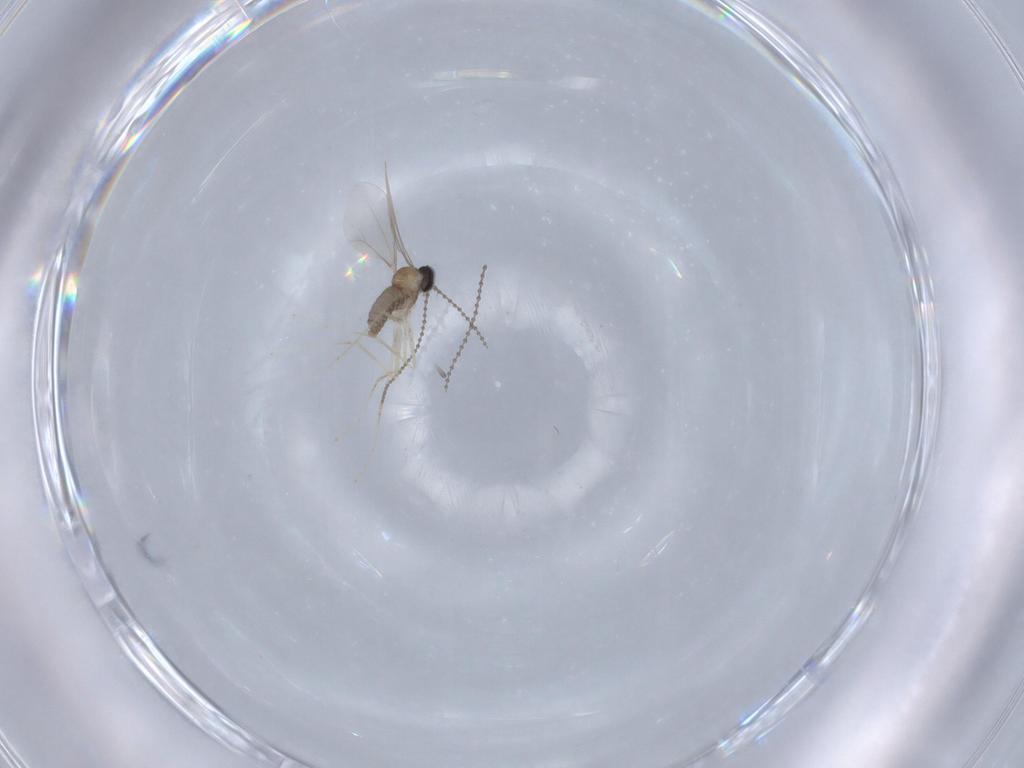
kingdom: Animalia
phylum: Arthropoda
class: Insecta
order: Diptera
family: Cecidomyiidae
